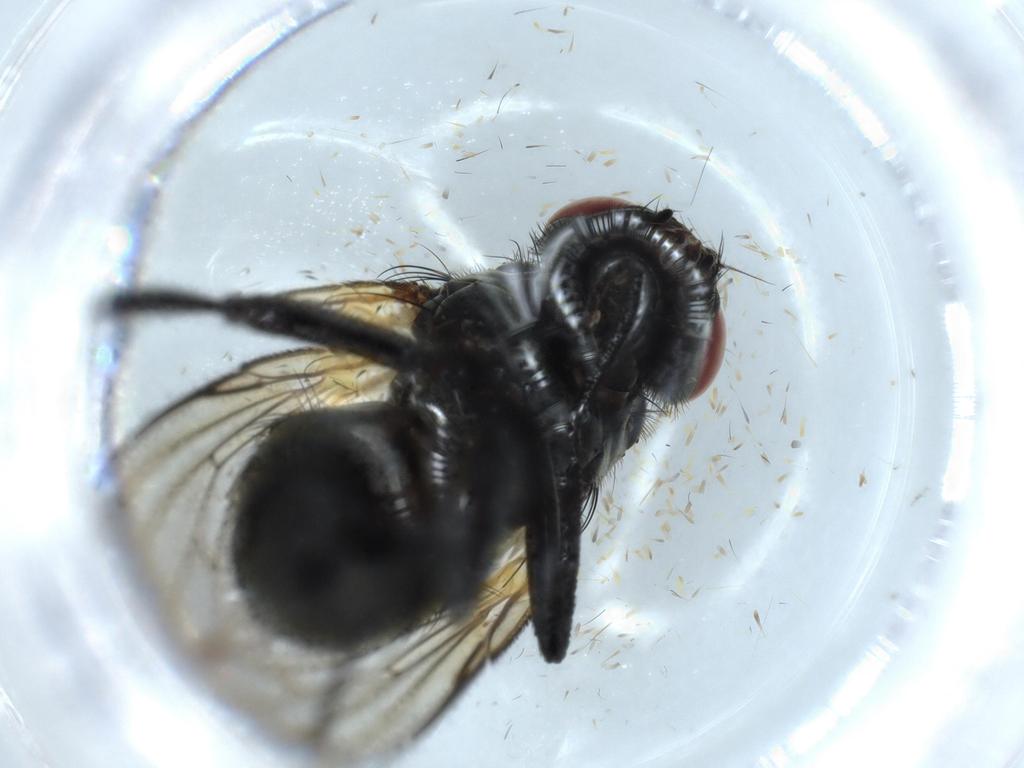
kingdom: Animalia
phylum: Arthropoda
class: Insecta
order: Diptera
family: Muscidae
